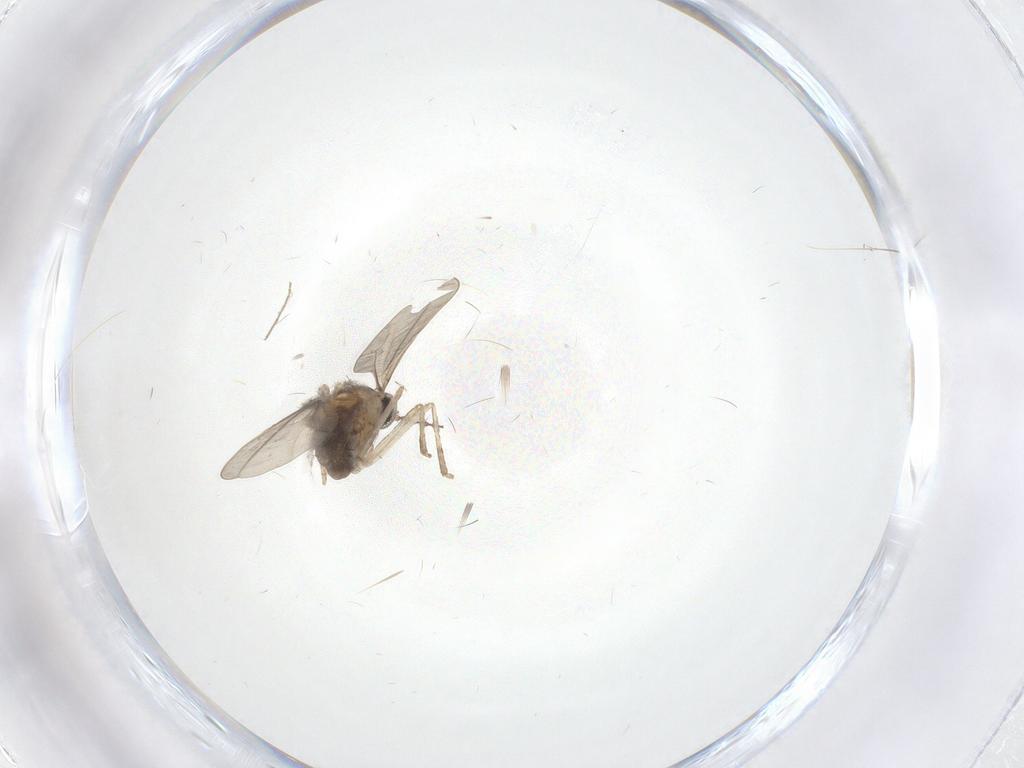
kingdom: Animalia
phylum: Arthropoda
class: Insecta
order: Diptera
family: Cecidomyiidae
